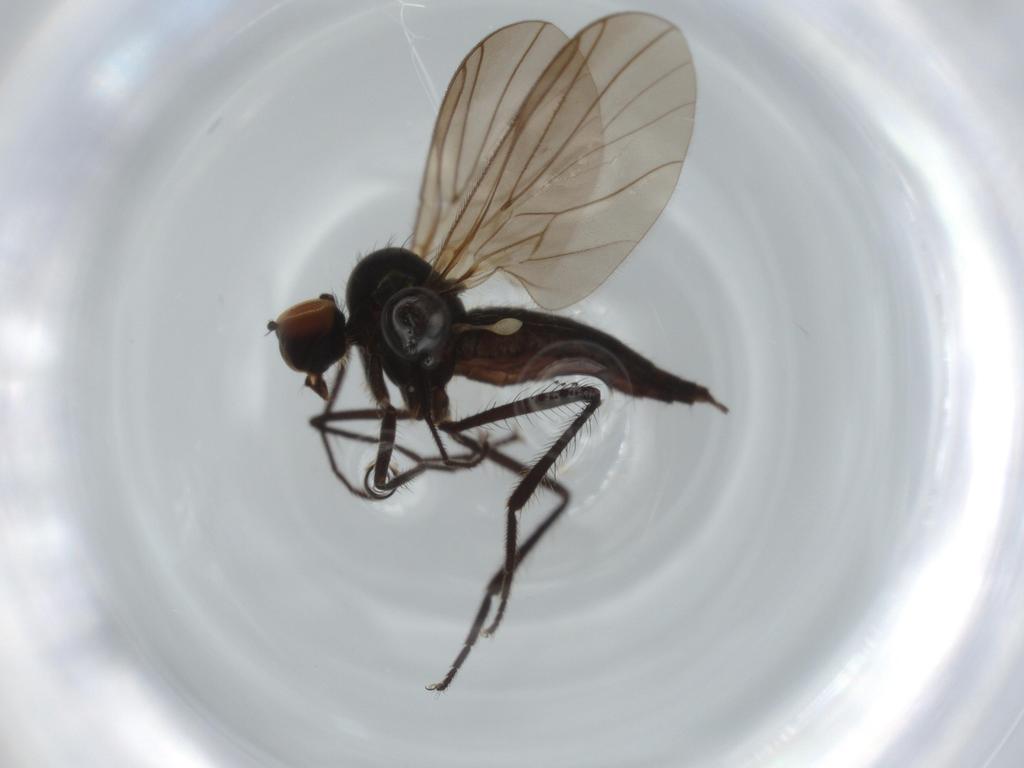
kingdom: Animalia
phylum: Arthropoda
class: Insecta
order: Diptera
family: Hybotidae
